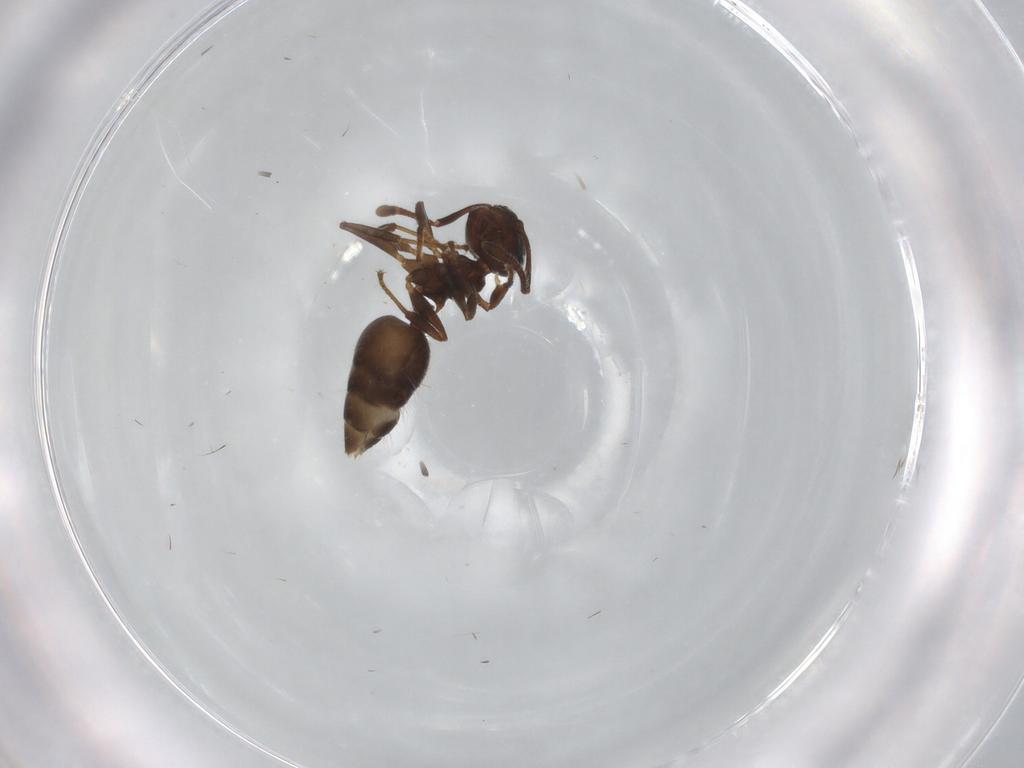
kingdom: Animalia
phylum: Arthropoda
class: Insecta
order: Hymenoptera
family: Formicidae
